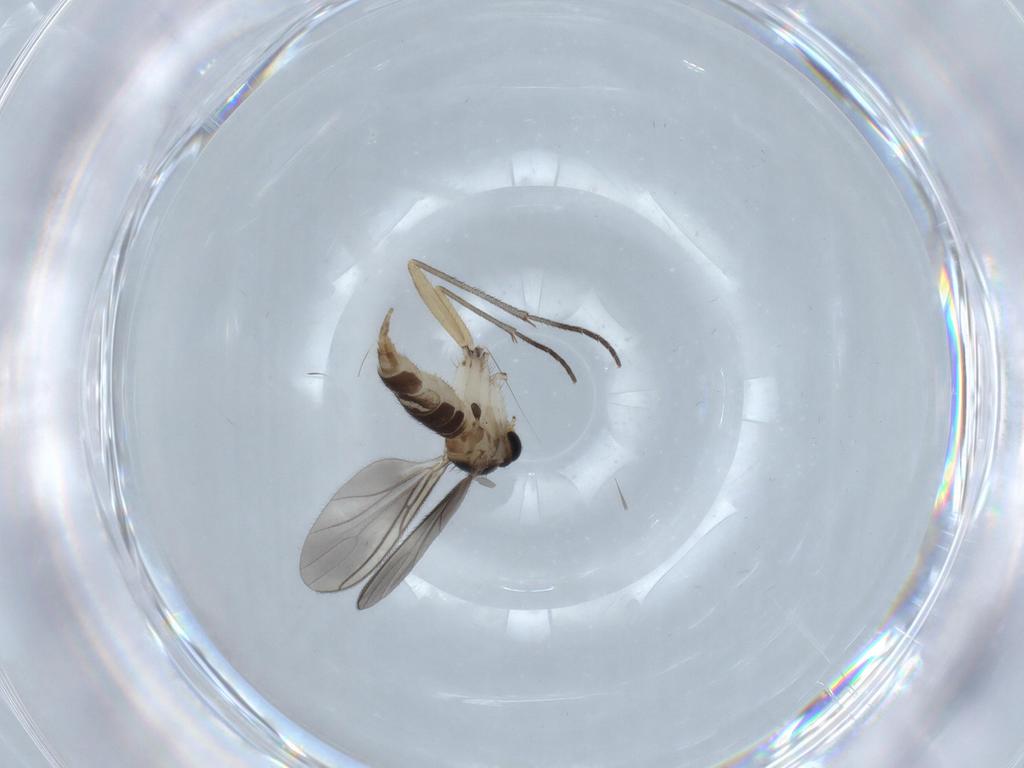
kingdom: Animalia
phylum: Arthropoda
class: Insecta
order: Diptera
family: Sciaridae
